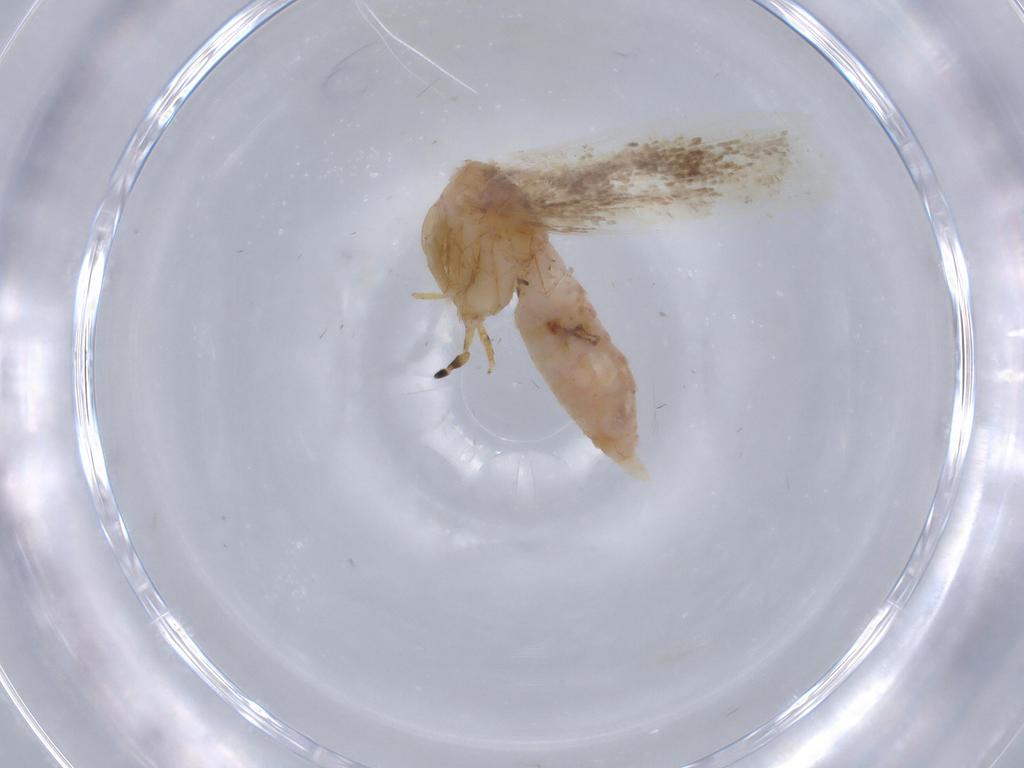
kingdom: Animalia
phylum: Arthropoda
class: Insecta
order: Lepidoptera
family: Gelechiidae
